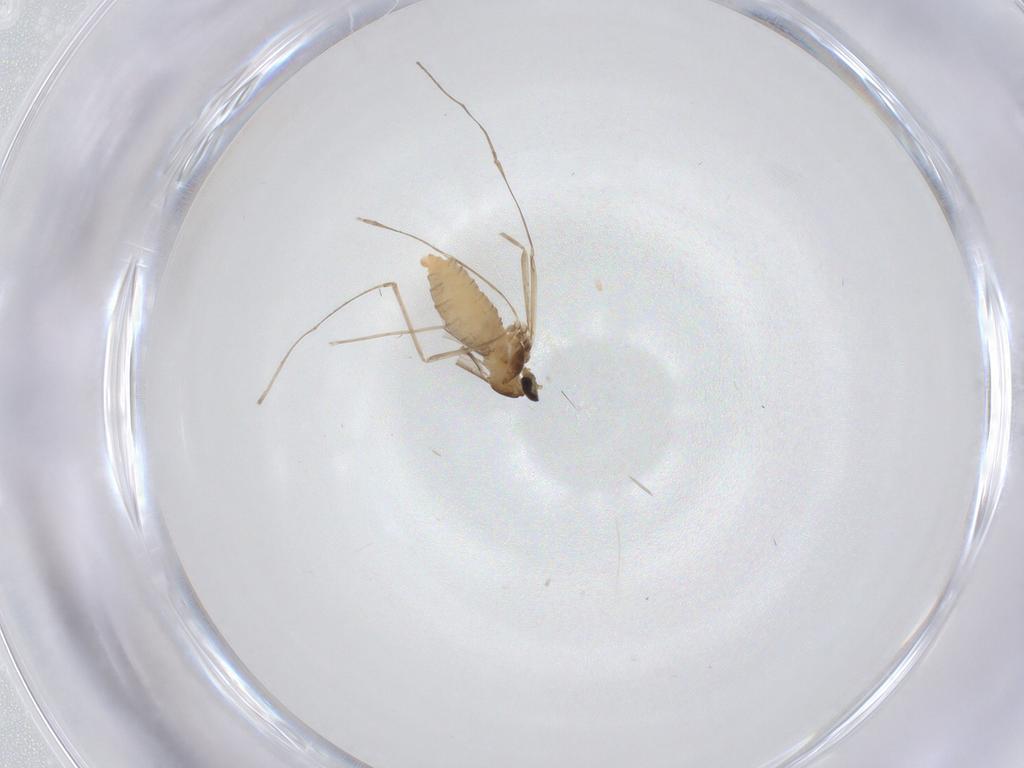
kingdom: Animalia
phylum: Arthropoda
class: Insecta
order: Diptera
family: Cecidomyiidae
